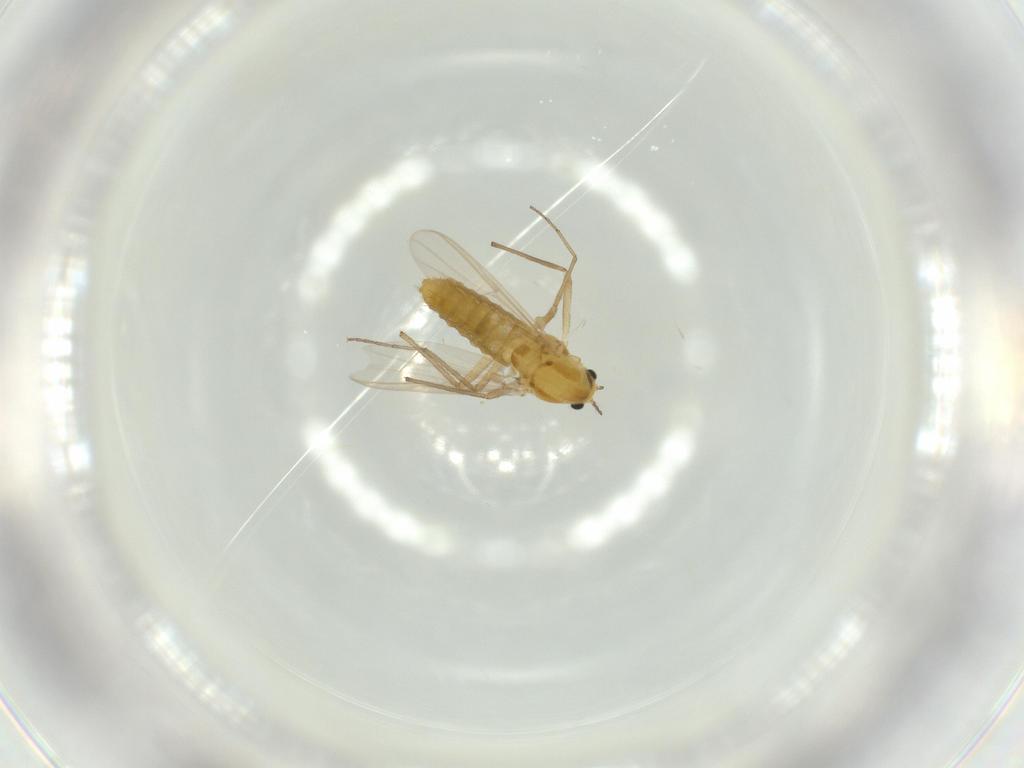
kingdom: Animalia
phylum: Arthropoda
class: Insecta
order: Diptera
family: Chironomidae
